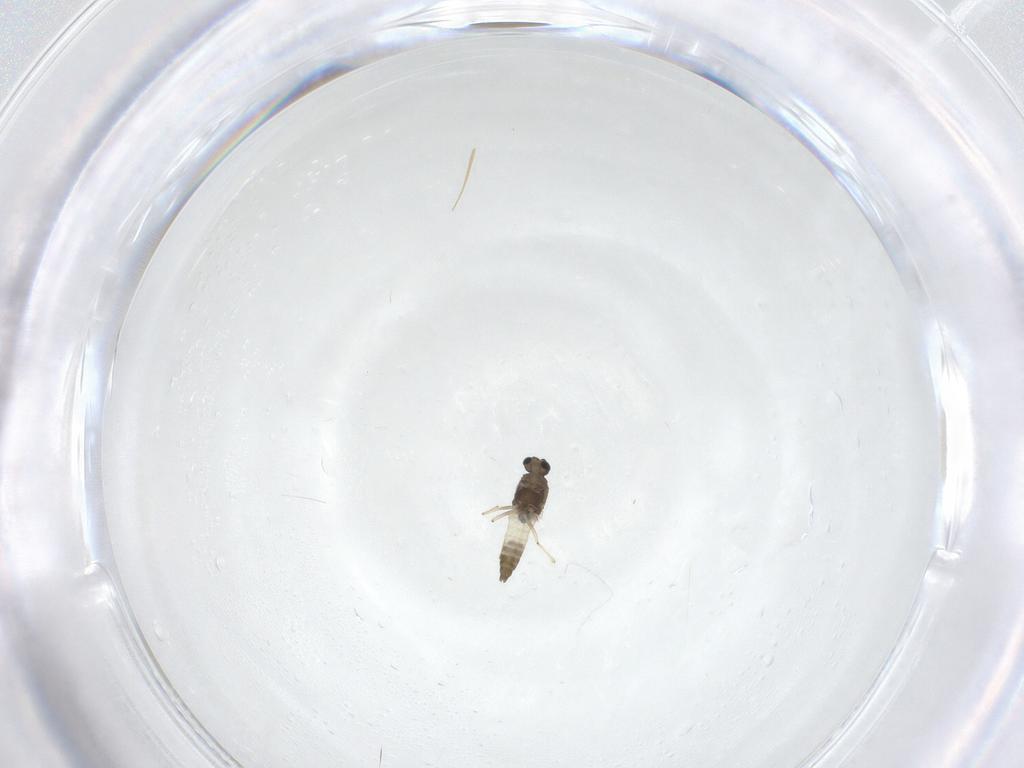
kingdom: Animalia
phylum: Arthropoda
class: Insecta
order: Diptera
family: Chironomidae
